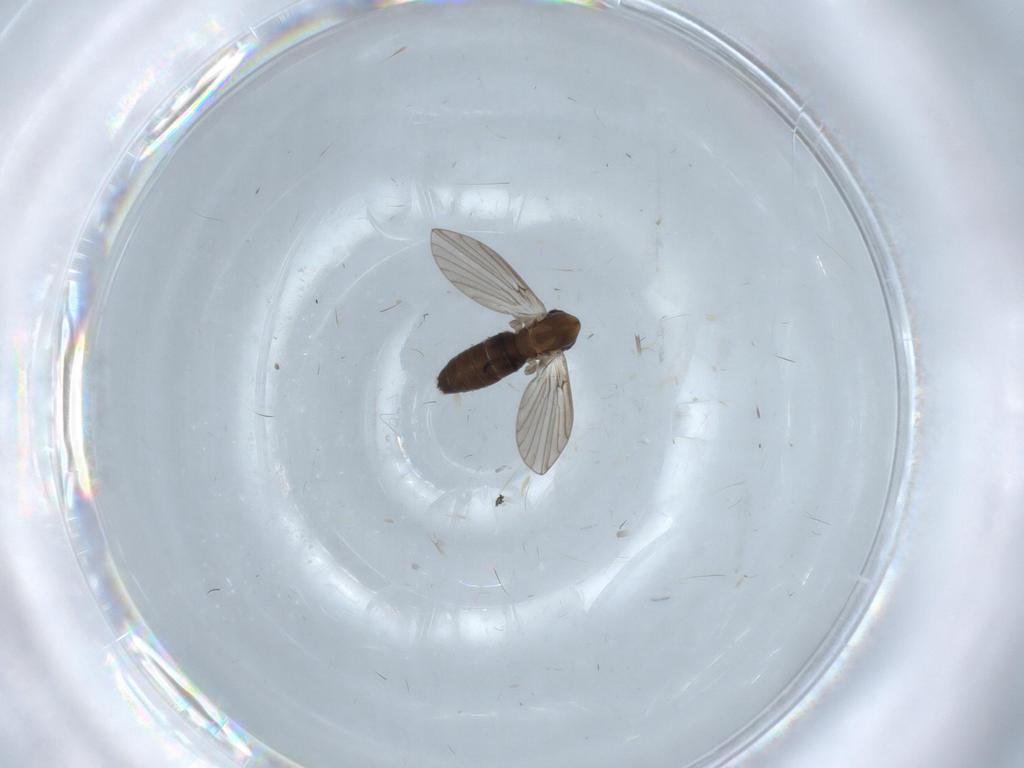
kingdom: Animalia
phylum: Arthropoda
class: Insecta
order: Diptera
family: Psychodidae
